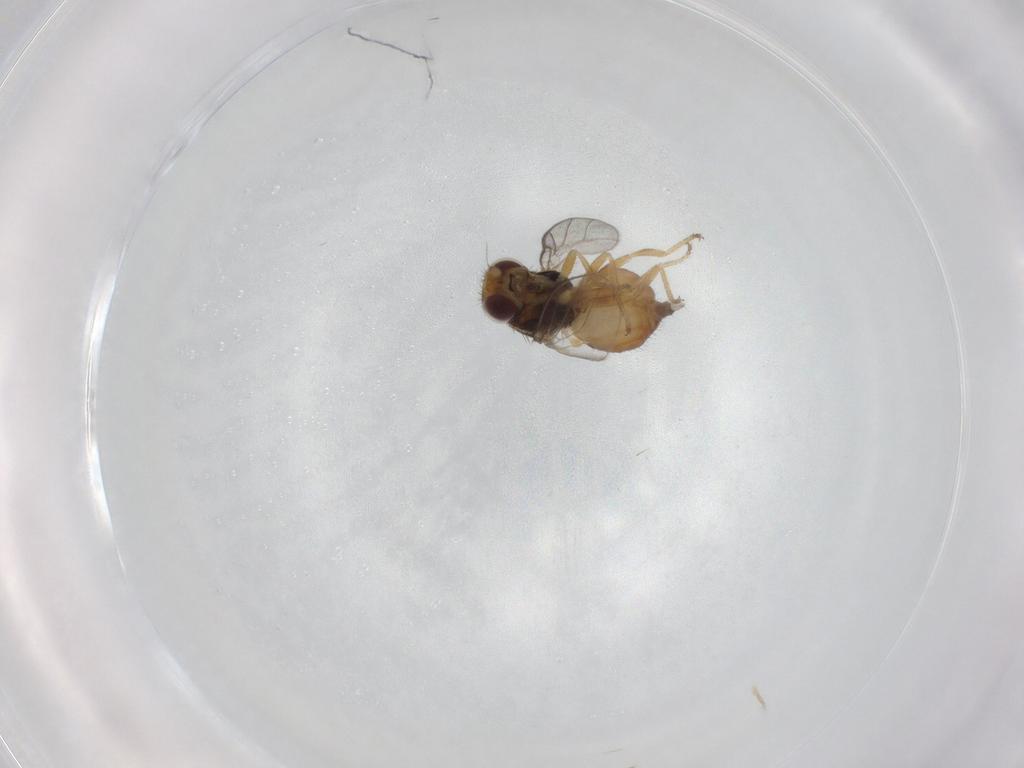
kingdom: Animalia
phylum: Arthropoda
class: Insecta
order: Diptera
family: Chloropidae
